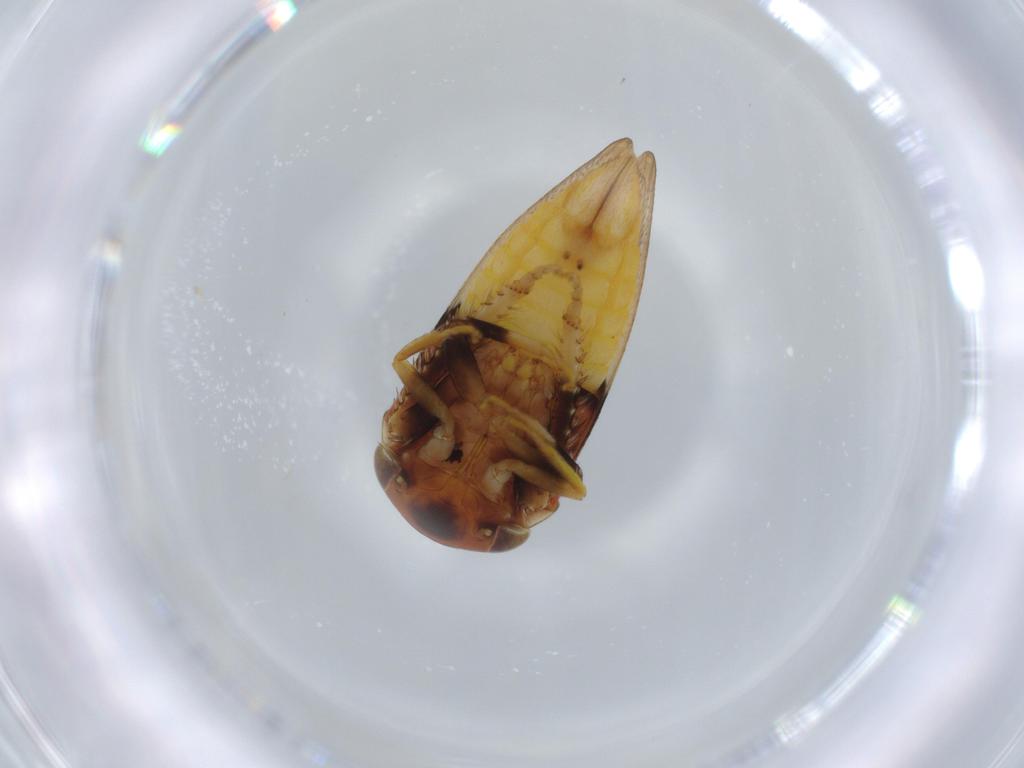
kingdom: Animalia
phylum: Arthropoda
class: Insecta
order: Hemiptera
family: Cicadellidae
